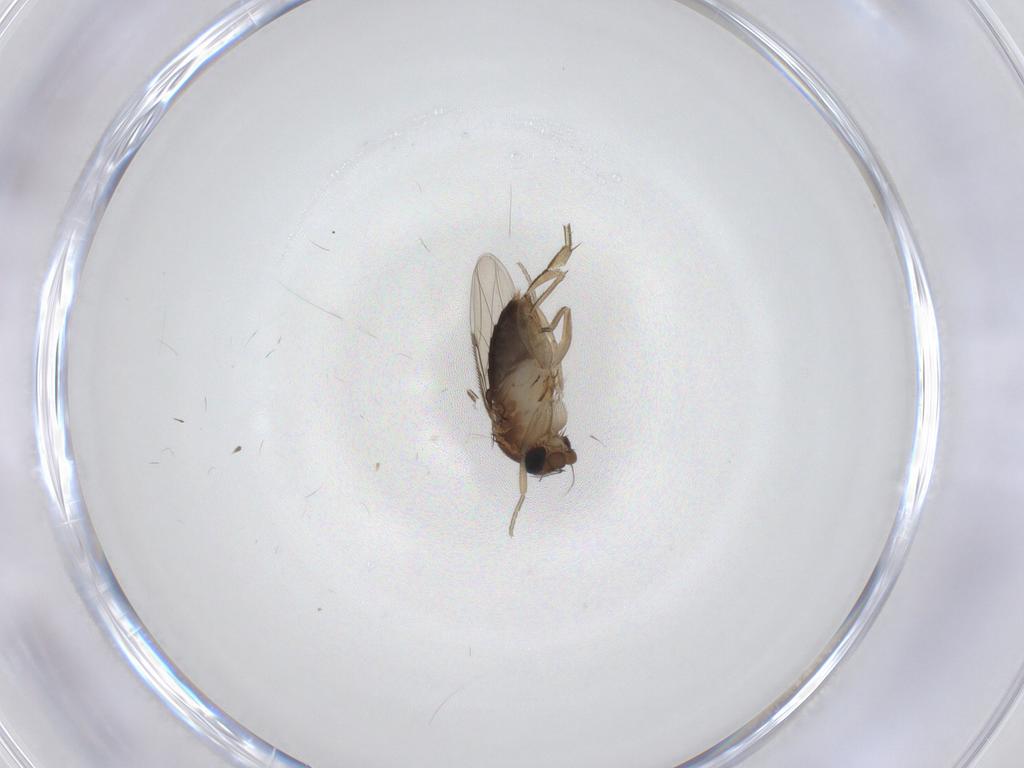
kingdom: Animalia
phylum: Arthropoda
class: Insecta
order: Diptera
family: Phoridae
